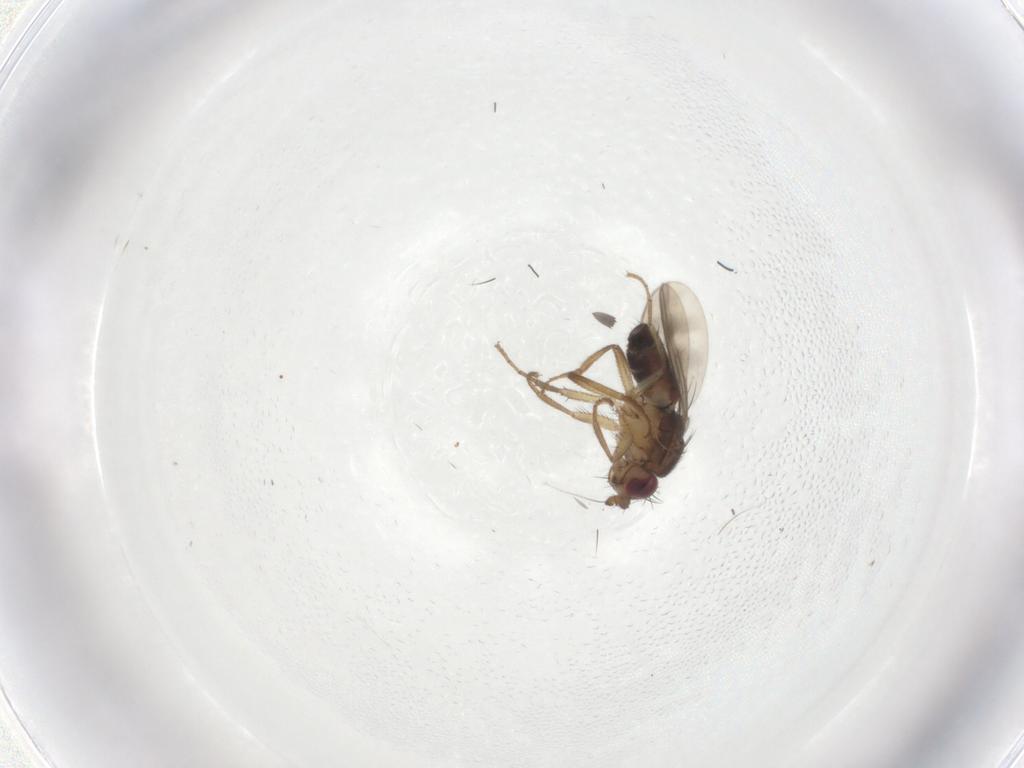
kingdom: Animalia
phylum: Arthropoda
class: Insecta
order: Diptera
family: Sphaeroceridae
